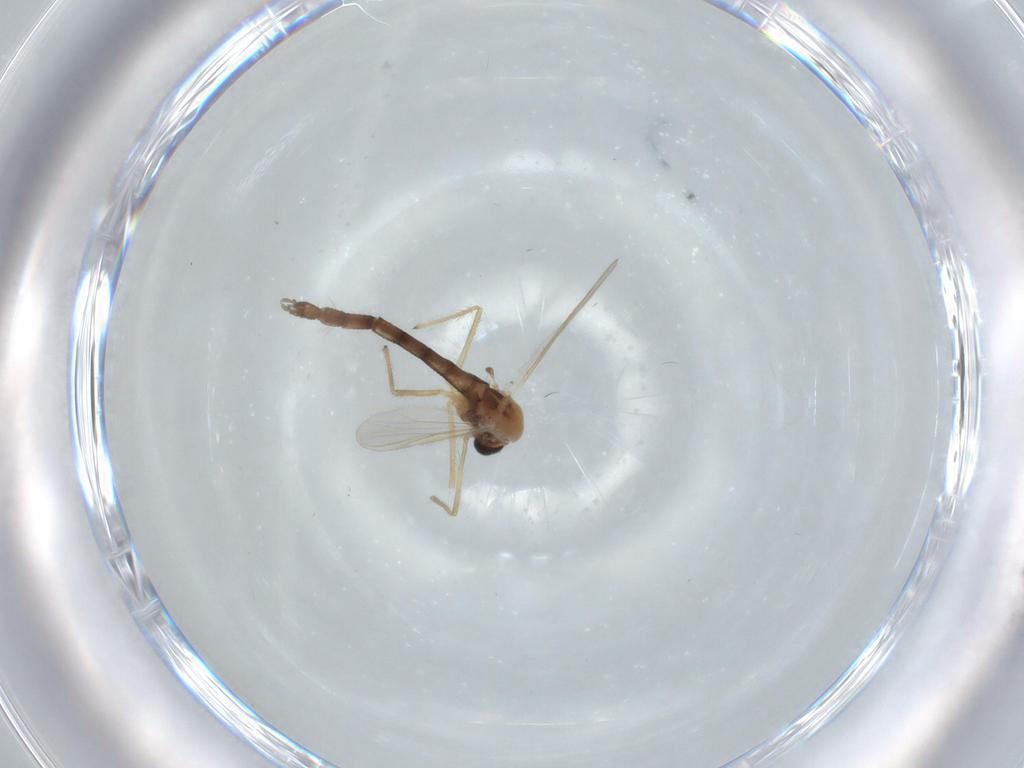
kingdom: Animalia
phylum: Arthropoda
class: Insecta
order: Diptera
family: Chironomidae
